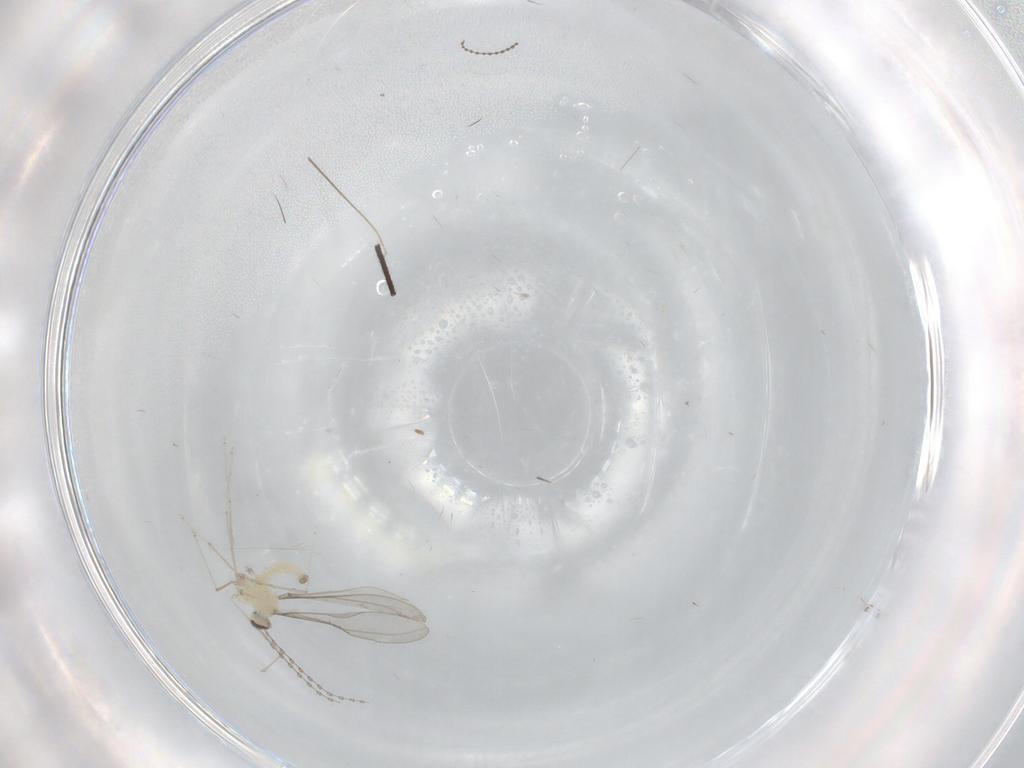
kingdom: Animalia
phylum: Arthropoda
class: Insecta
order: Diptera
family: Cecidomyiidae
